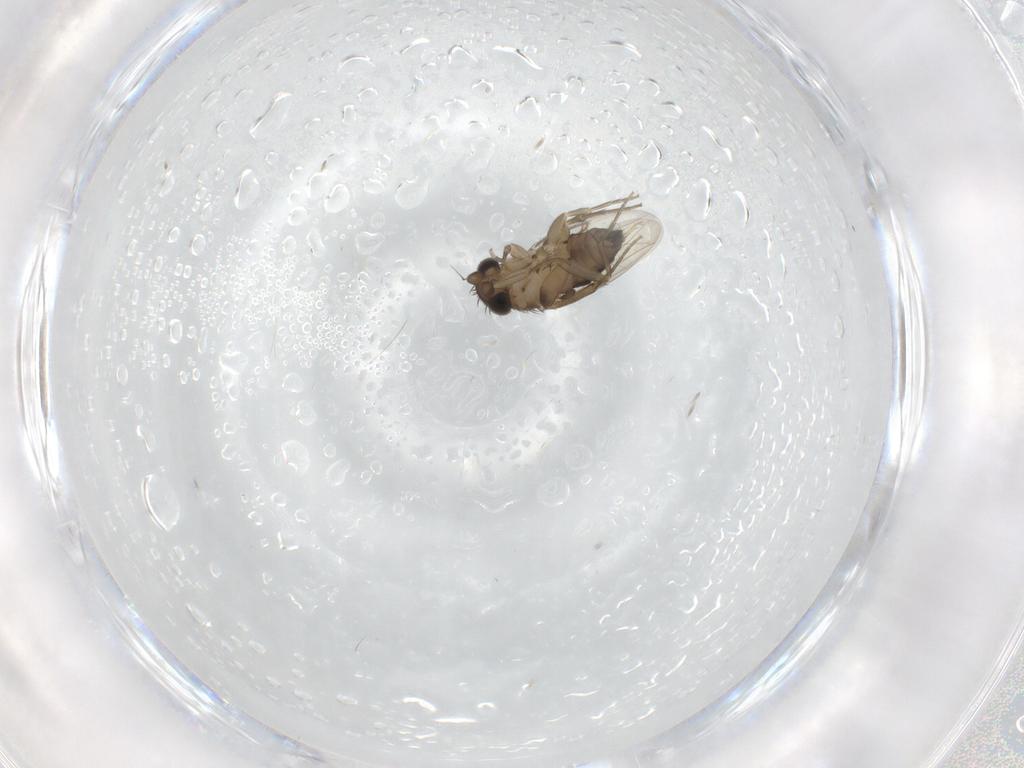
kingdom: Animalia
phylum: Arthropoda
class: Insecta
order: Diptera
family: Phoridae
